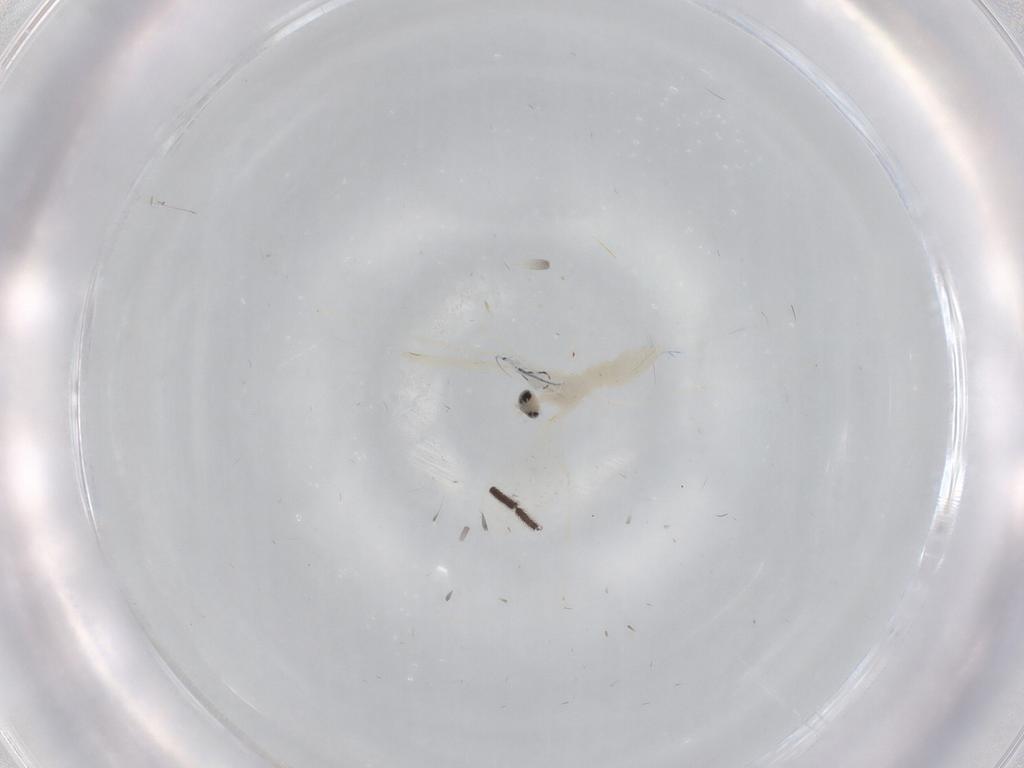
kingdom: Animalia
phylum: Arthropoda
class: Insecta
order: Diptera
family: Cecidomyiidae
